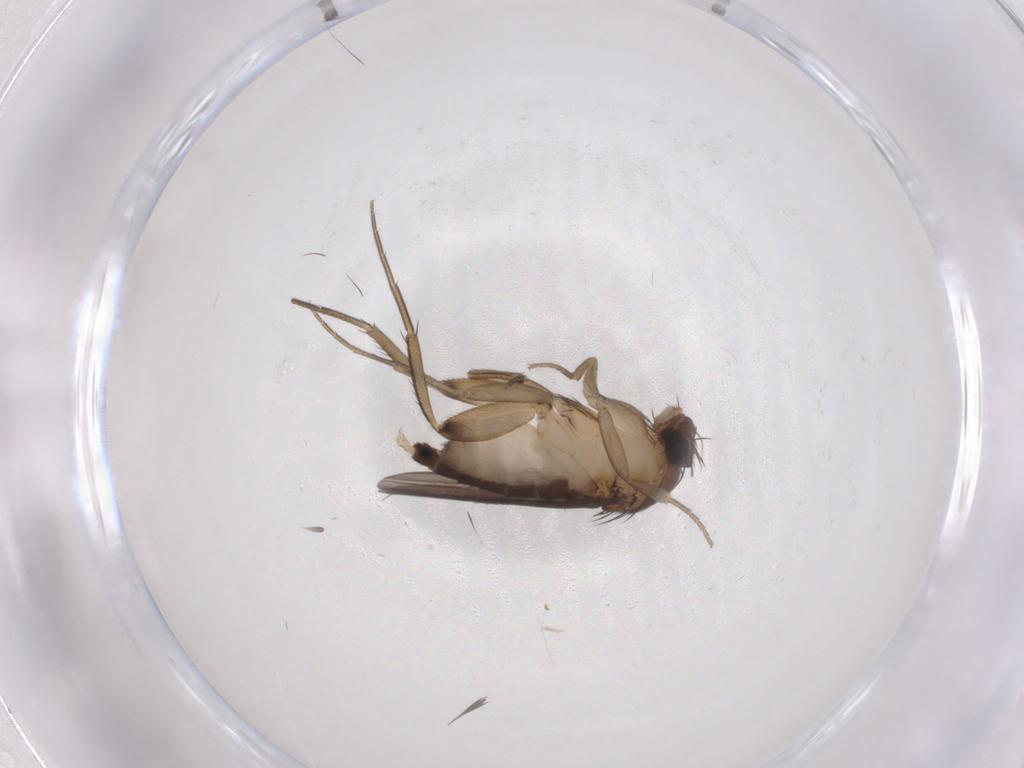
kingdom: Animalia
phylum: Arthropoda
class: Insecta
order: Diptera
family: Phoridae
